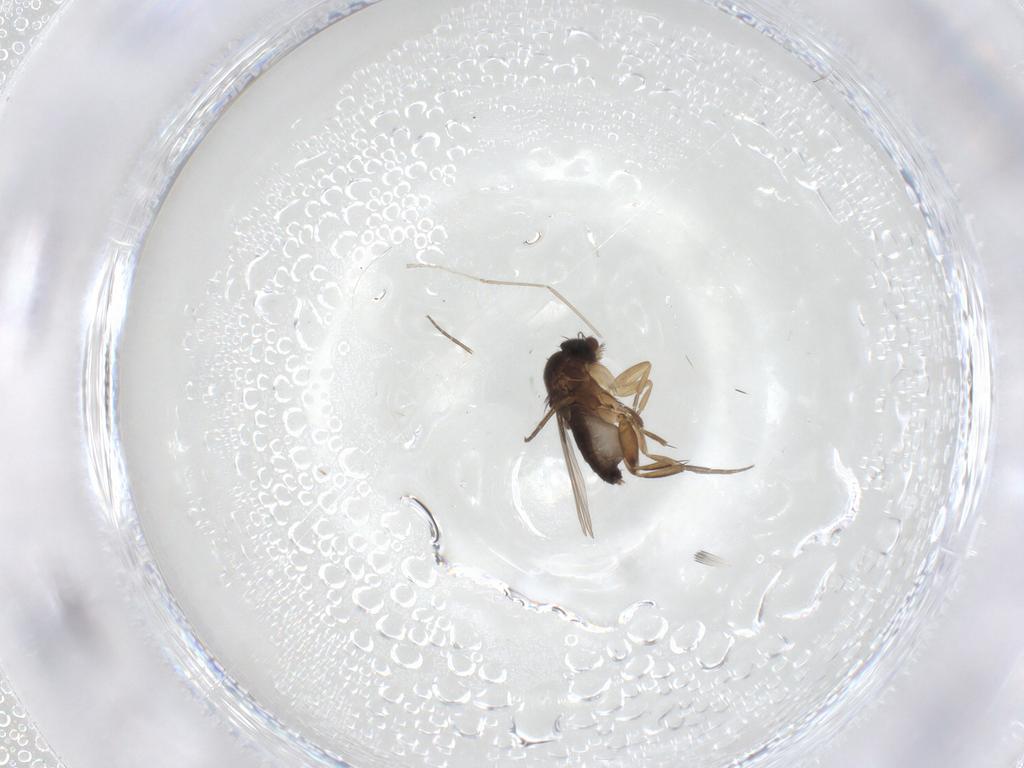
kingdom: Animalia
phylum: Arthropoda
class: Insecta
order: Diptera
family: Phoridae
